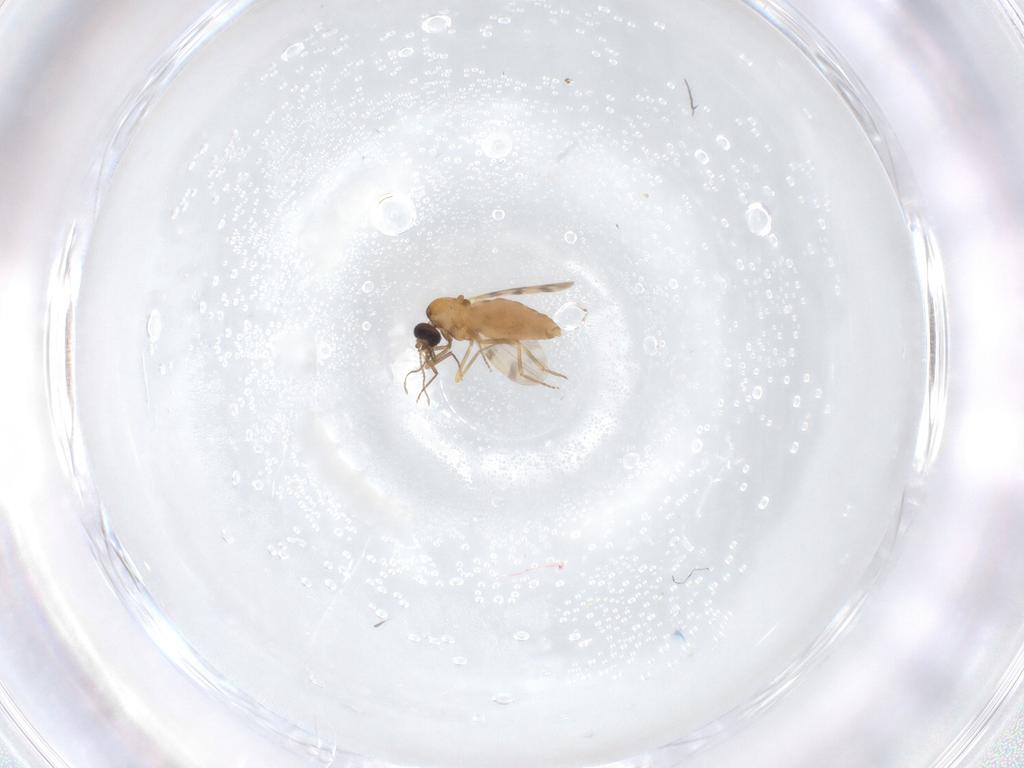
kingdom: Animalia
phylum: Arthropoda
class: Insecta
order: Diptera
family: Ceratopogonidae
